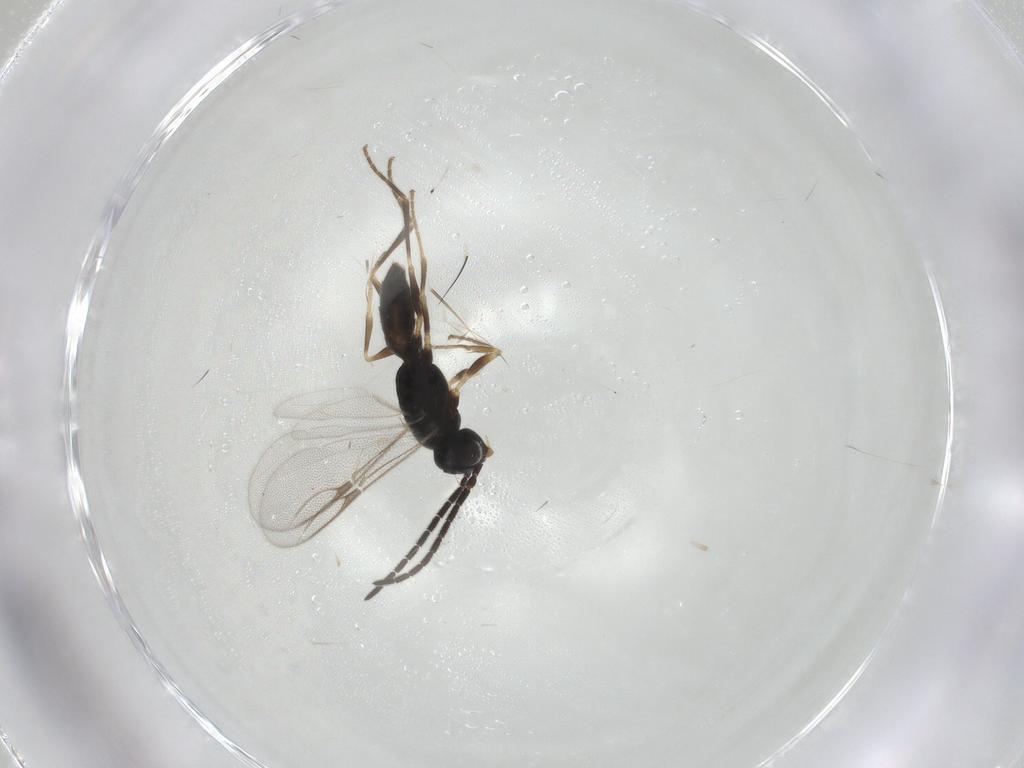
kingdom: Animalia
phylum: Arthropoda
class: Insecta
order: Hymenoptera
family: Dryinidae
